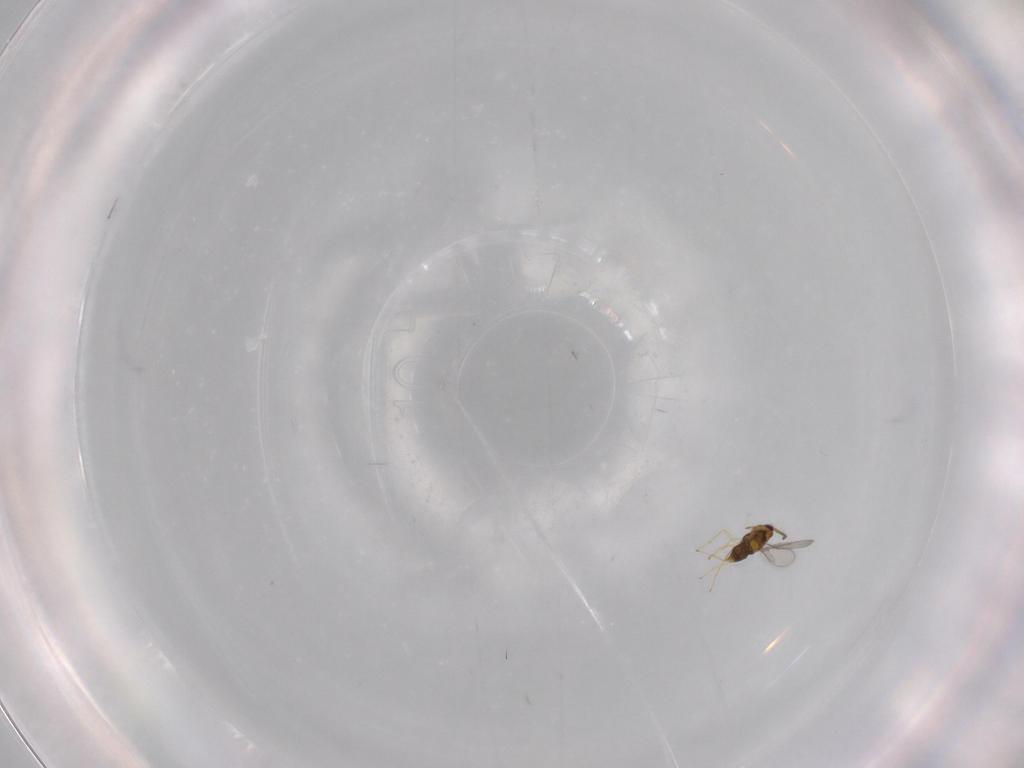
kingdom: Animalia
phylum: Arthropoda
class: Insecta
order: Hymenoptera
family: Aphelinidae
